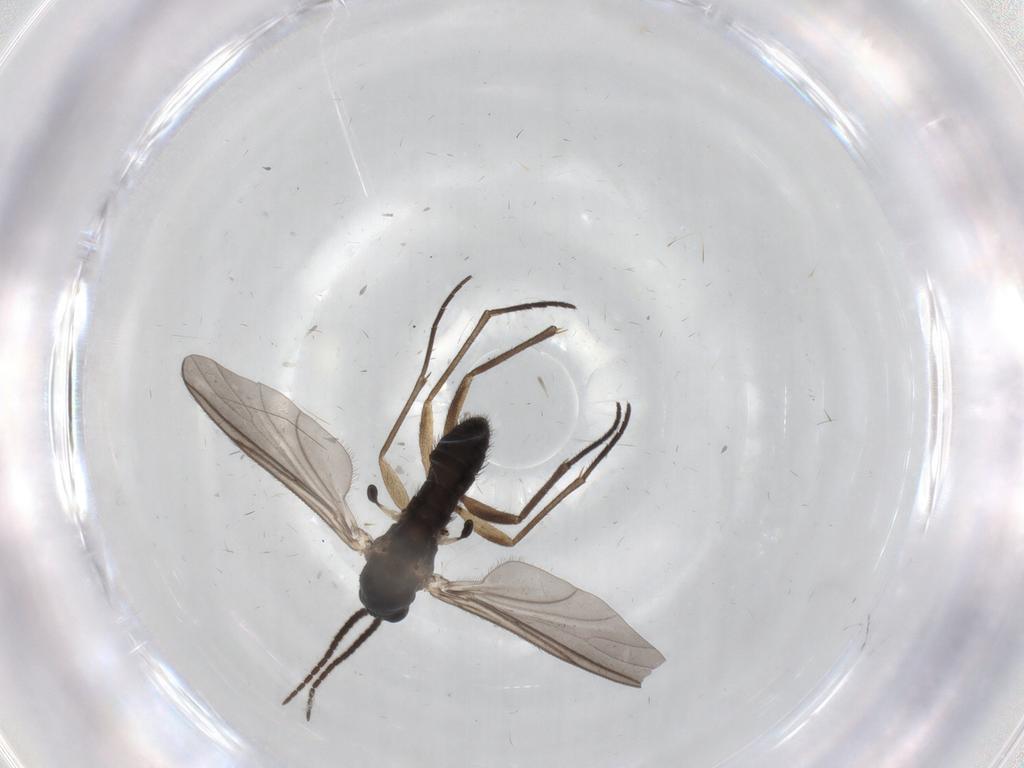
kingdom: Animalia
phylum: Arthropoda
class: Insecta
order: Diptera
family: Sciaridae
